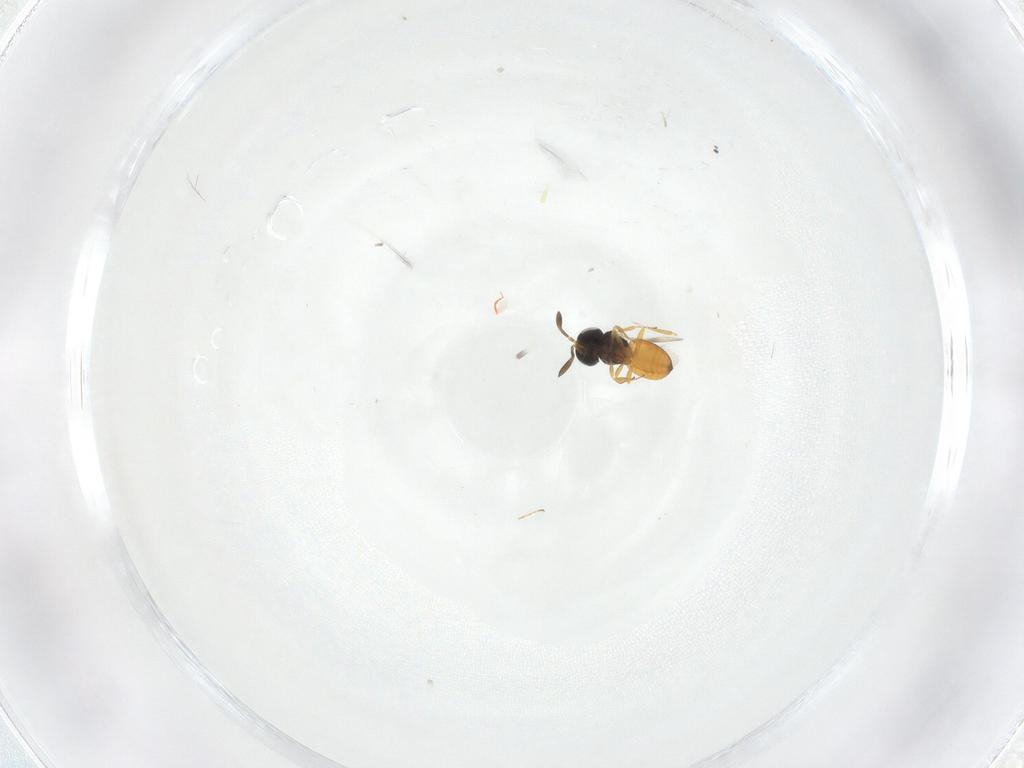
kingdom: Animalia
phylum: Arthropoda
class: Insecta
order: Hymenoptera
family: Scelionidae
